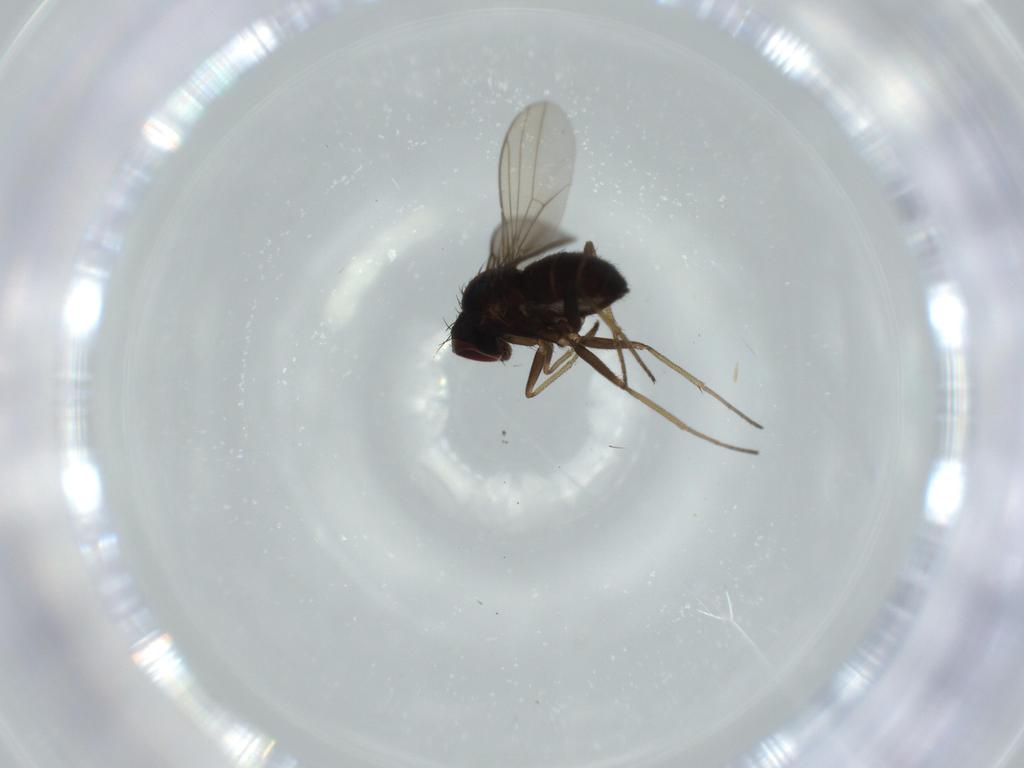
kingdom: Animalia
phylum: Arthropoda
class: Insecta
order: Diptera
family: Dolichopodidae
